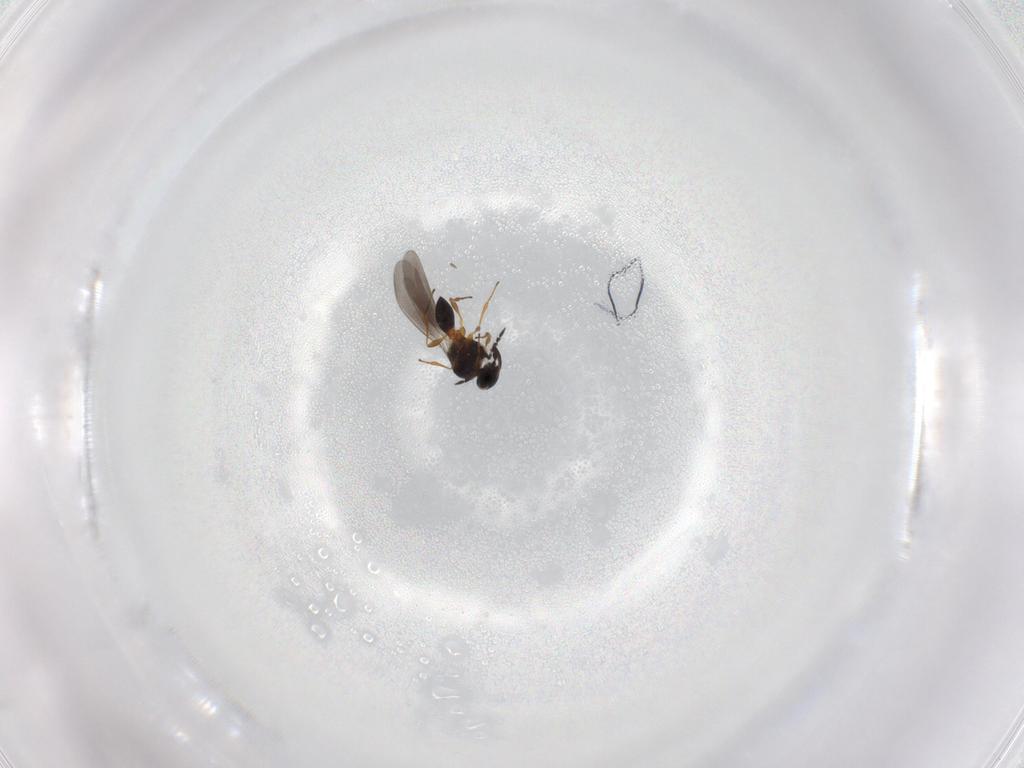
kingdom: Animalia
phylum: Arthropoda
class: Insecta
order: Hymenoptera
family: Platygastridae
